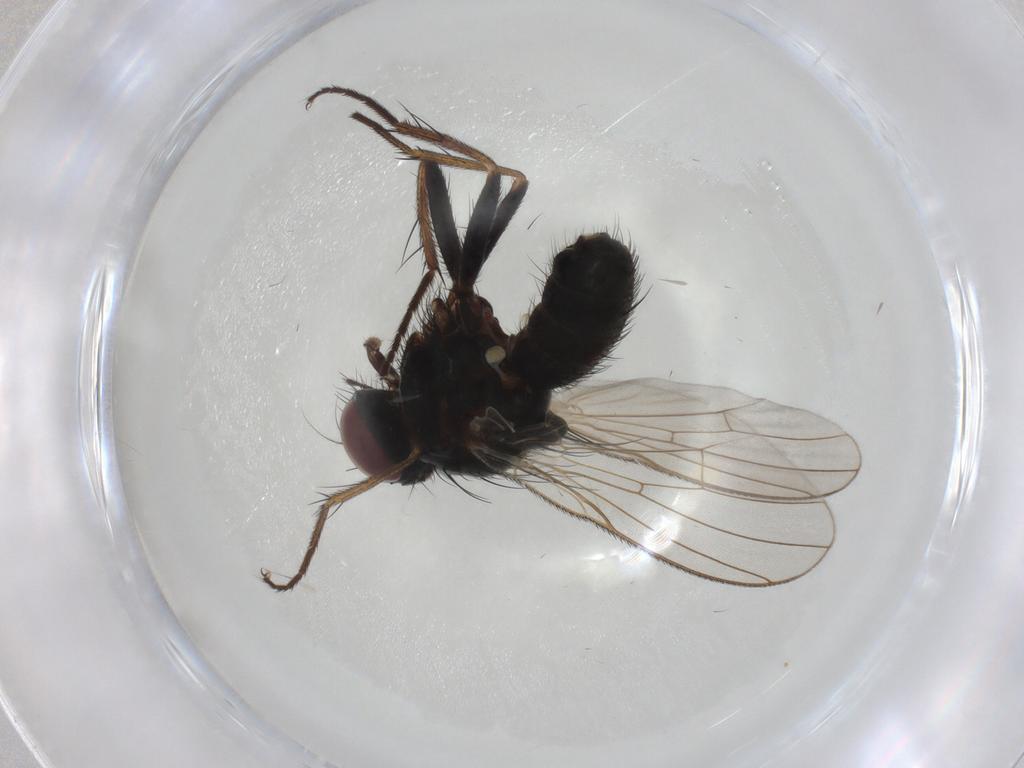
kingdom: Animalia
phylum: Arthropoda
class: Insecta
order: Diptera
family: Muscidae
